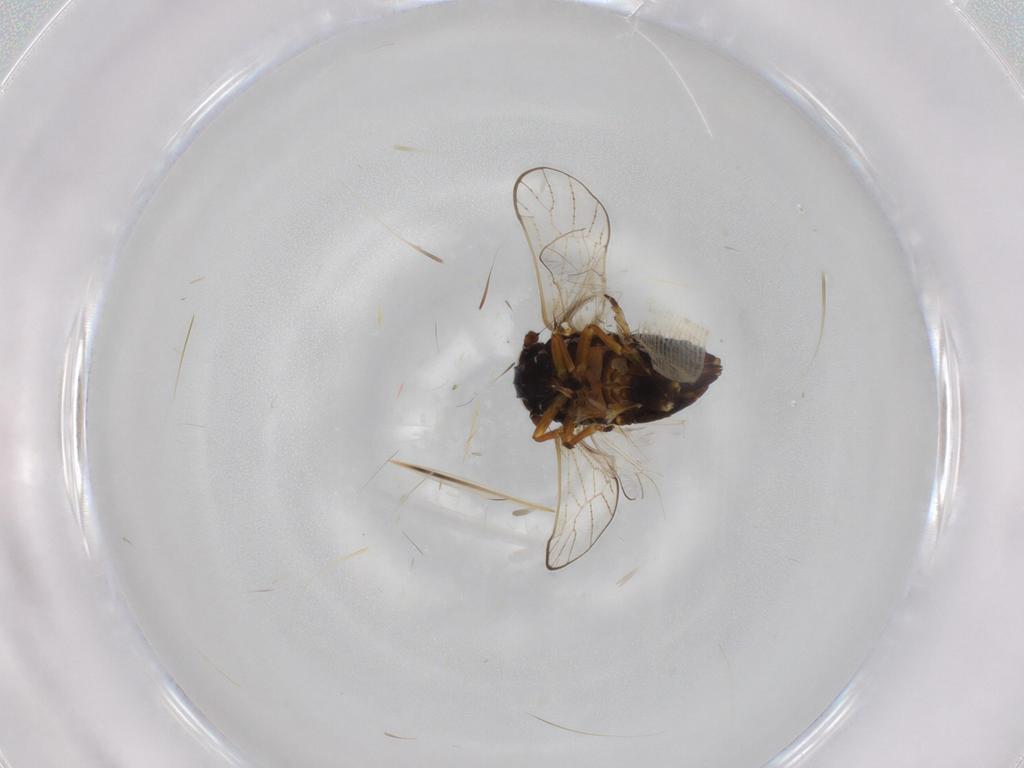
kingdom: Animalia
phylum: Arthropoda
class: Insecta
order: Hemiptera
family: Delphacidae
